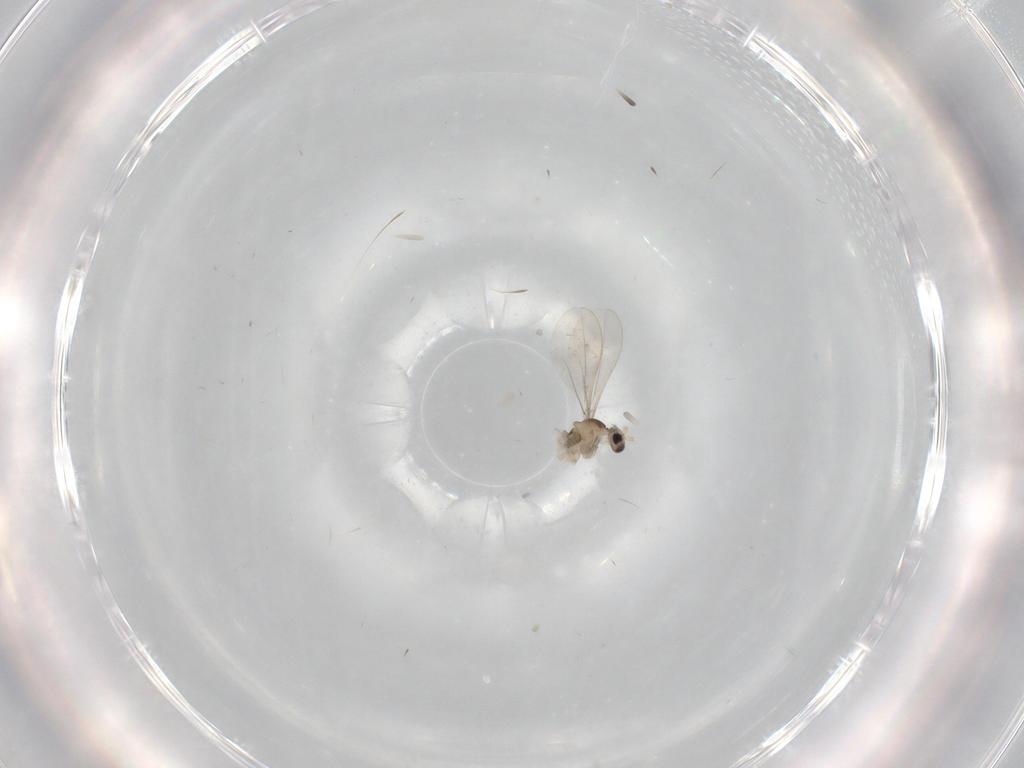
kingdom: Animalia
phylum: Arthropoda
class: Insecta
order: Diptera
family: Cecidomyiidae
